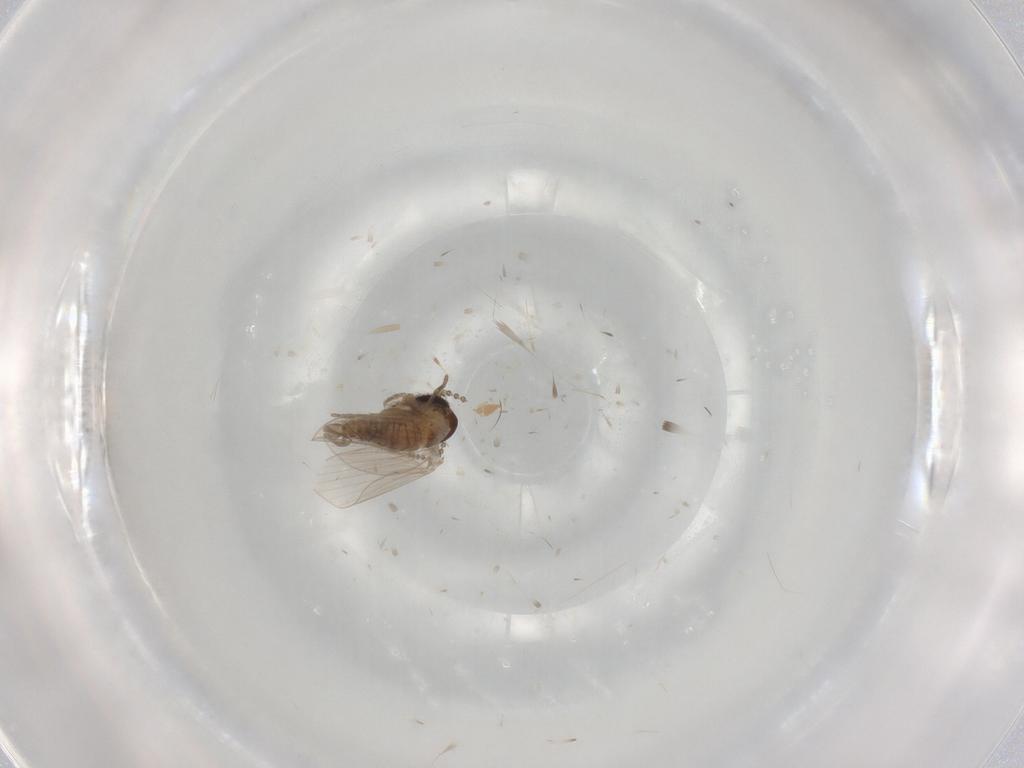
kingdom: Animalia
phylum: Arthropoda
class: Insecta
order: Diptera
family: Psychodidae
